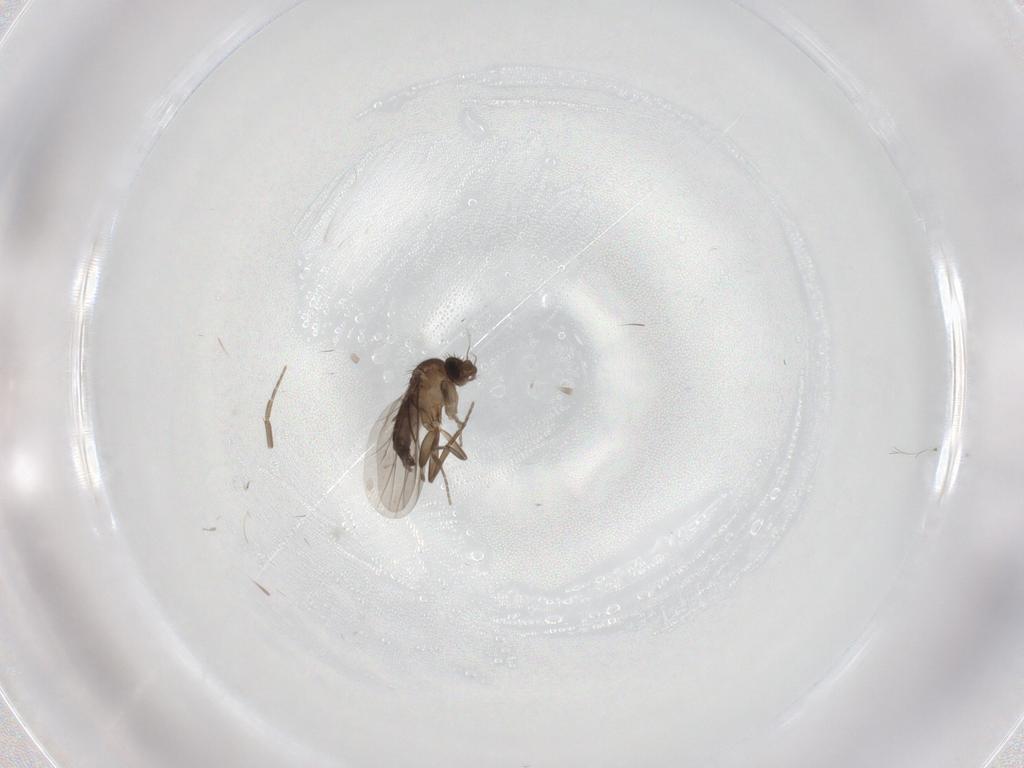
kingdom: Animalia
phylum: Arthropoda
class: Insecta
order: Diptera
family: Phoridae
